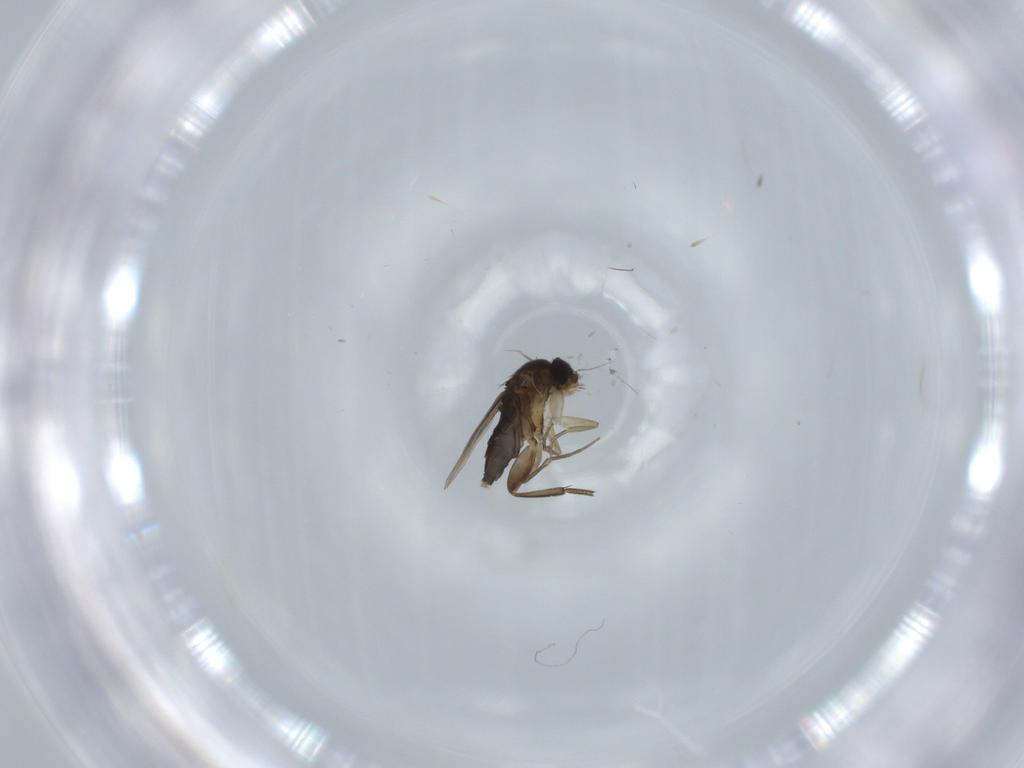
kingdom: Animalia
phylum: Arthropoda
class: Insecta
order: Diptera
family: Phoridae
